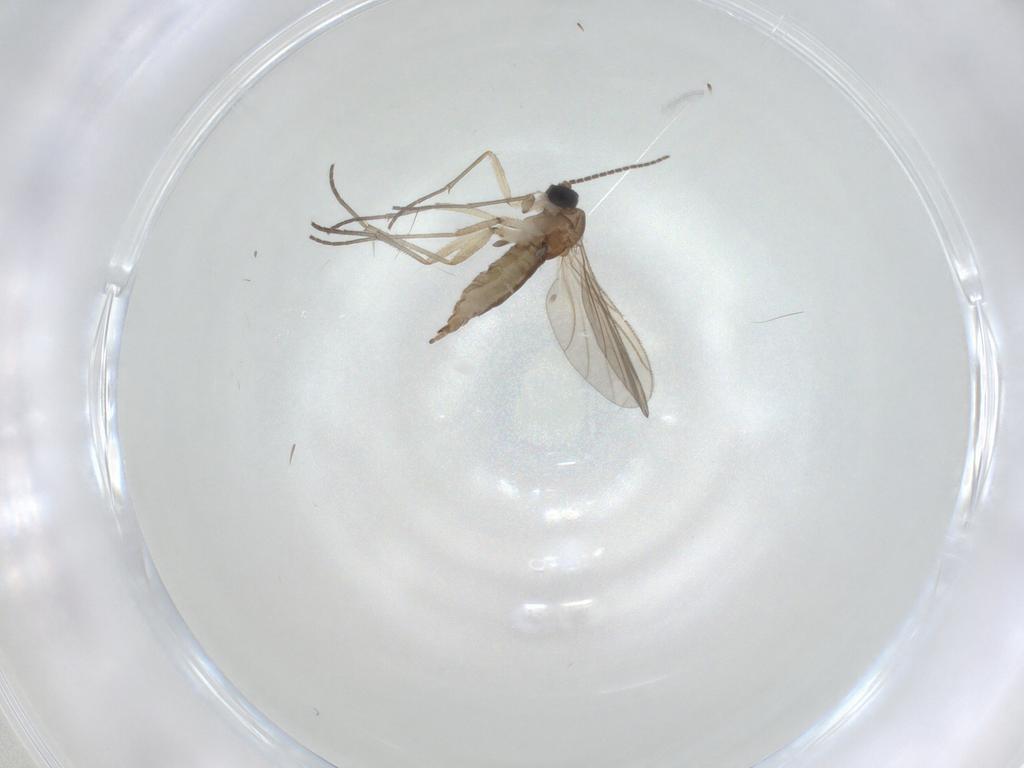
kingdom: Animalia
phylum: Arthropoda
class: Insecta
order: Diptera
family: Sciaridae
